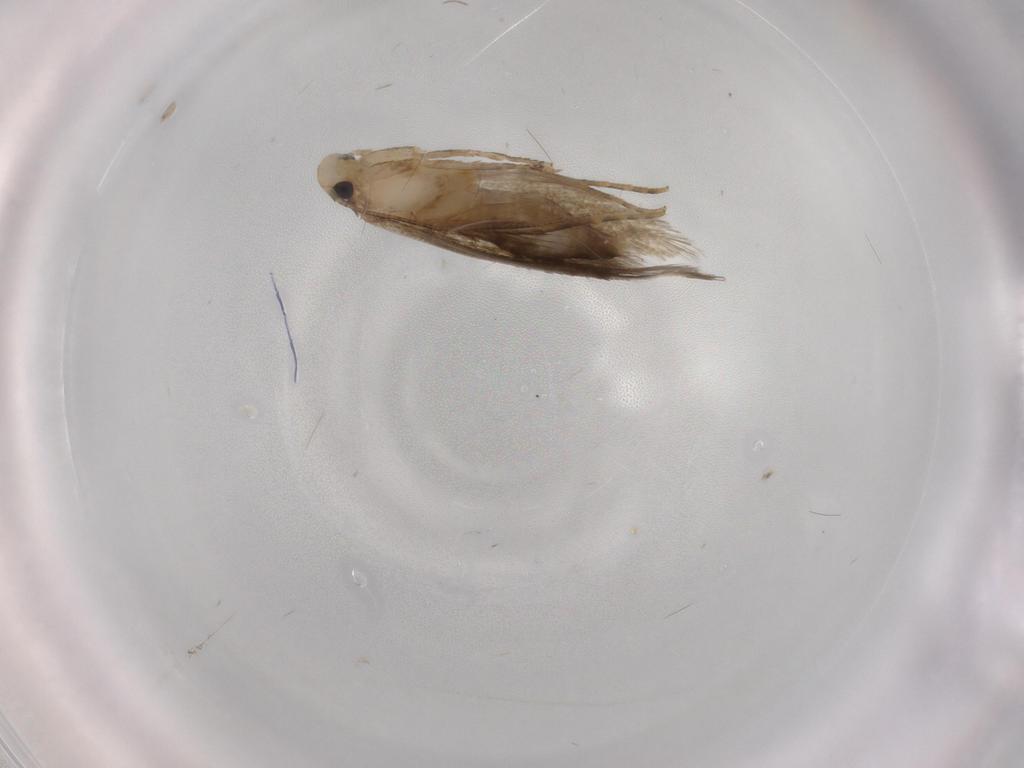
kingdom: Animalia
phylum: Arthropoda
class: Insecta
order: Lepidoptera
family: Tineidae
